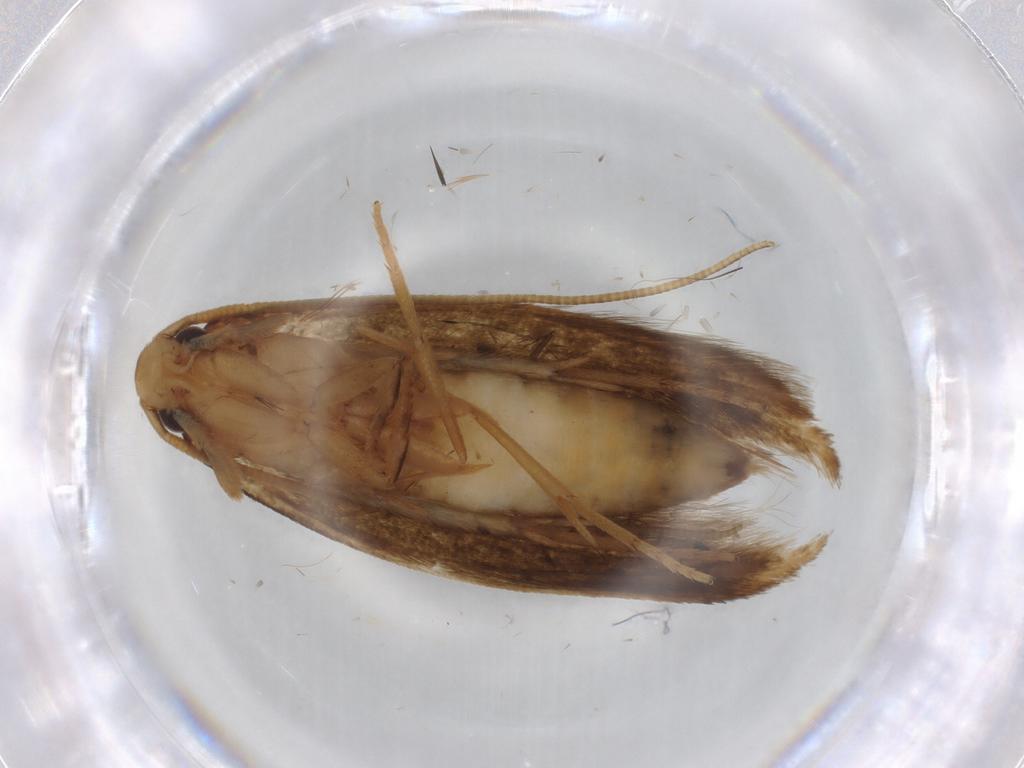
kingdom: Animalia
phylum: Arthropoda
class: Insecta
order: Lepidoptera
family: Tineidae
